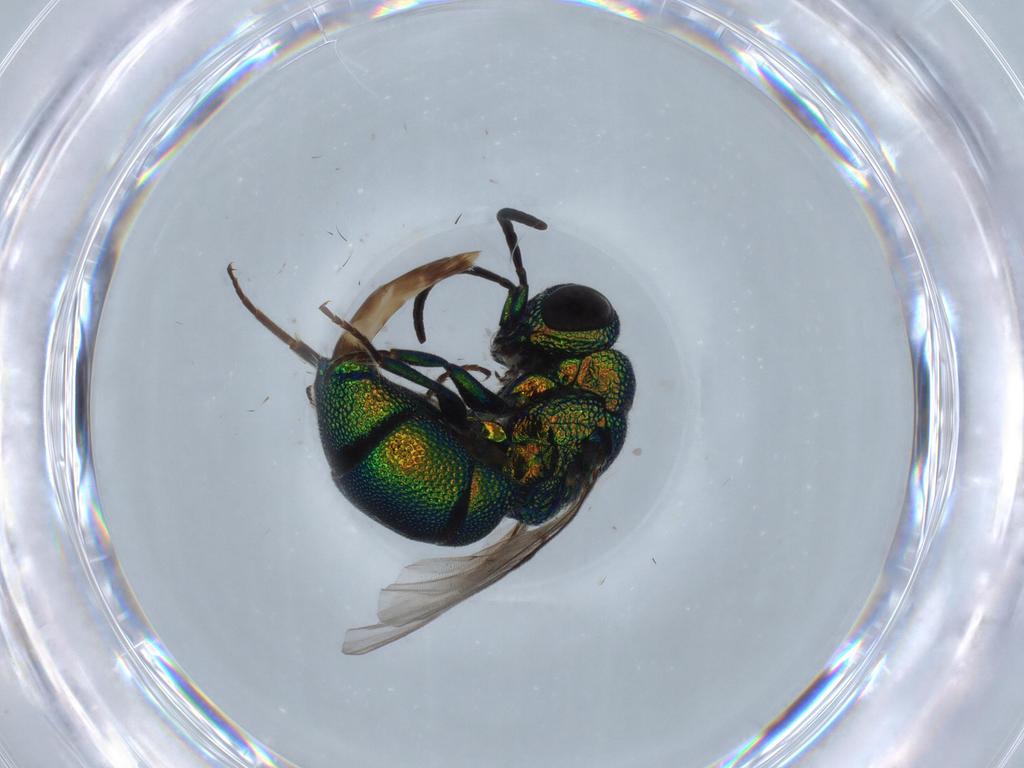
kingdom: Animalia
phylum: Arthropoda
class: Insecta
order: Hymenoptera
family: Chrysididae
